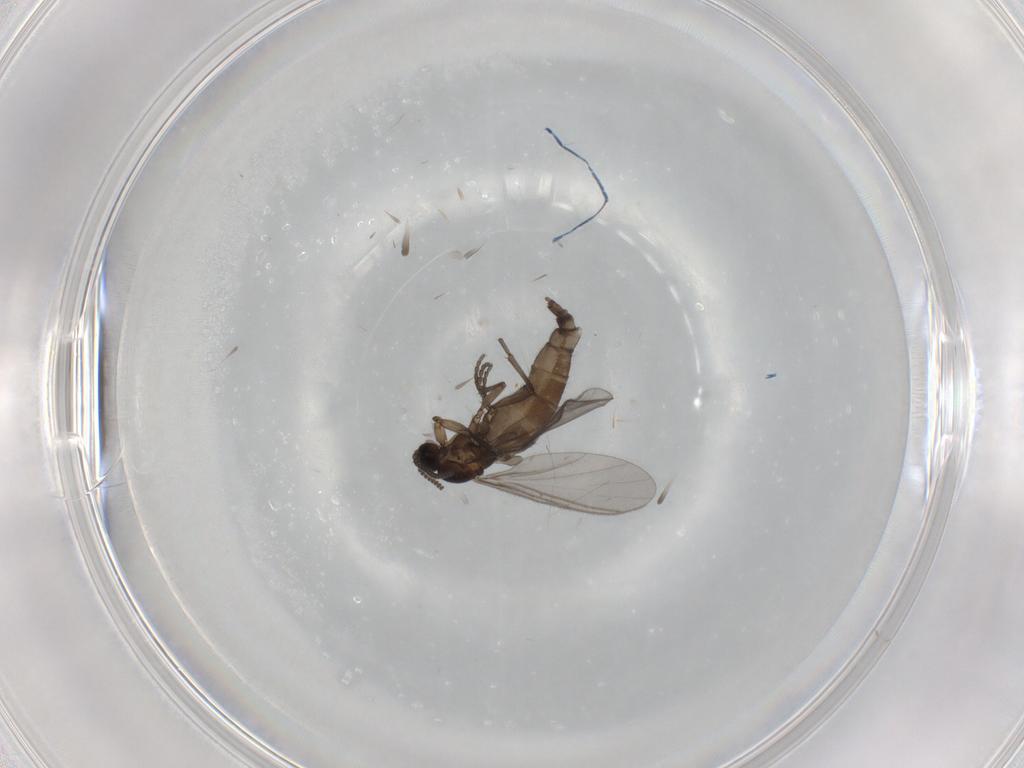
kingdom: Animalia
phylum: Arthropoda
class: Insecta
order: Diptera
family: Sciaridae
